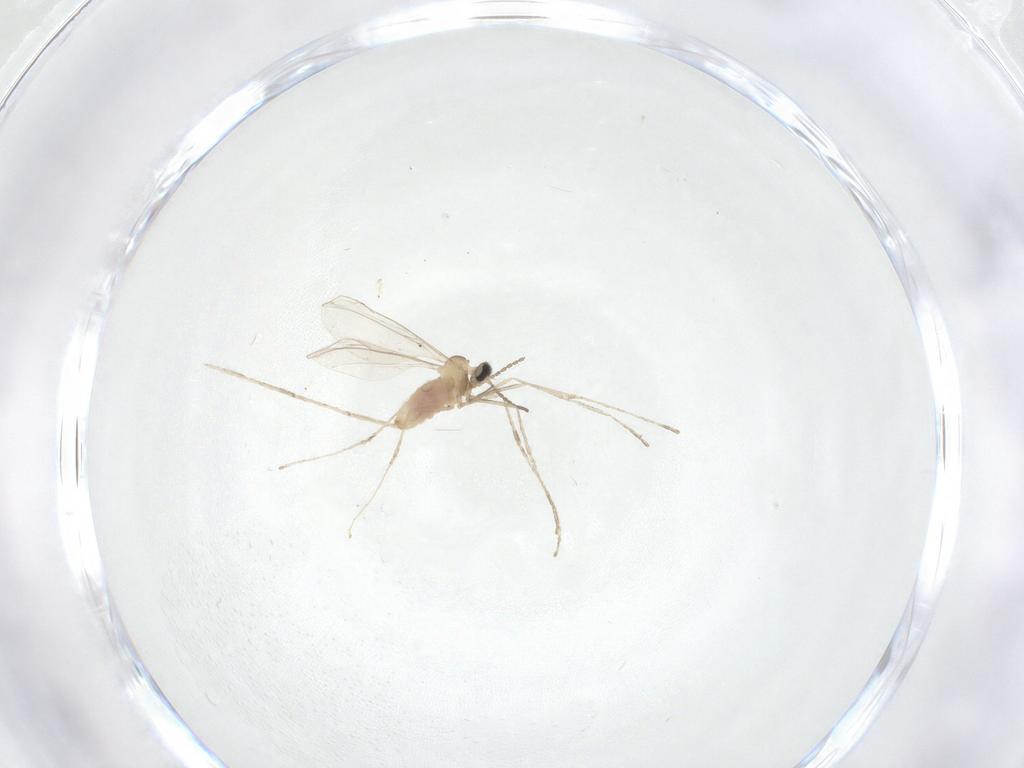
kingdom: Animalia
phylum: Arthropoda
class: Insecta
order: Diptera
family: Cecidomyiidae
